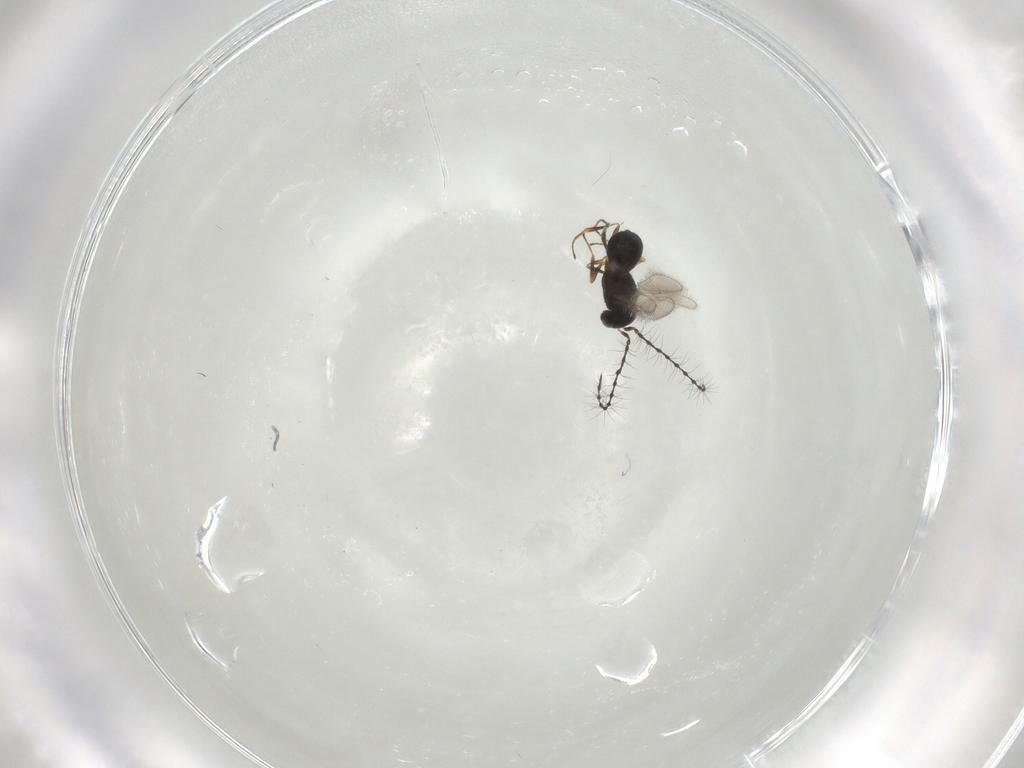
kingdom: Animalia
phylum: Arthropoda
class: Insecta
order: Hymenoptera
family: Scelionidae
